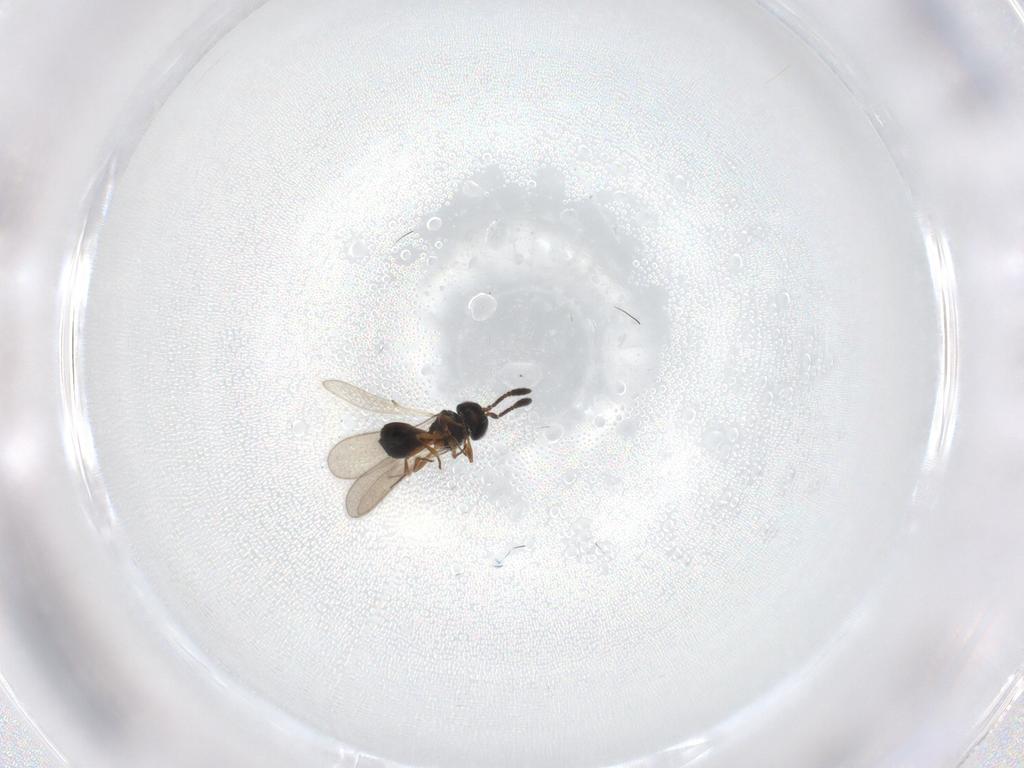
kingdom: Animalia
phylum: Arthropoda
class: Insecta
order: Hymenoptera
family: Scelionidae
